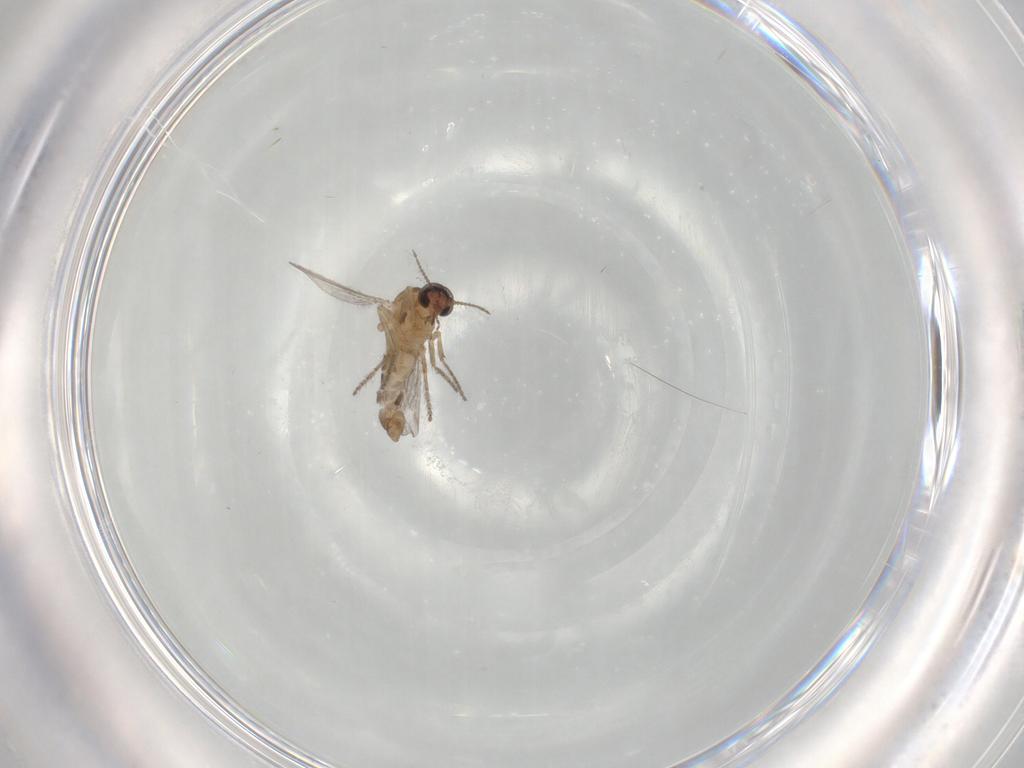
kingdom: Animalia
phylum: Arthropoda
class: Insecta
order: Diptera
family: Ceratopogonidae
